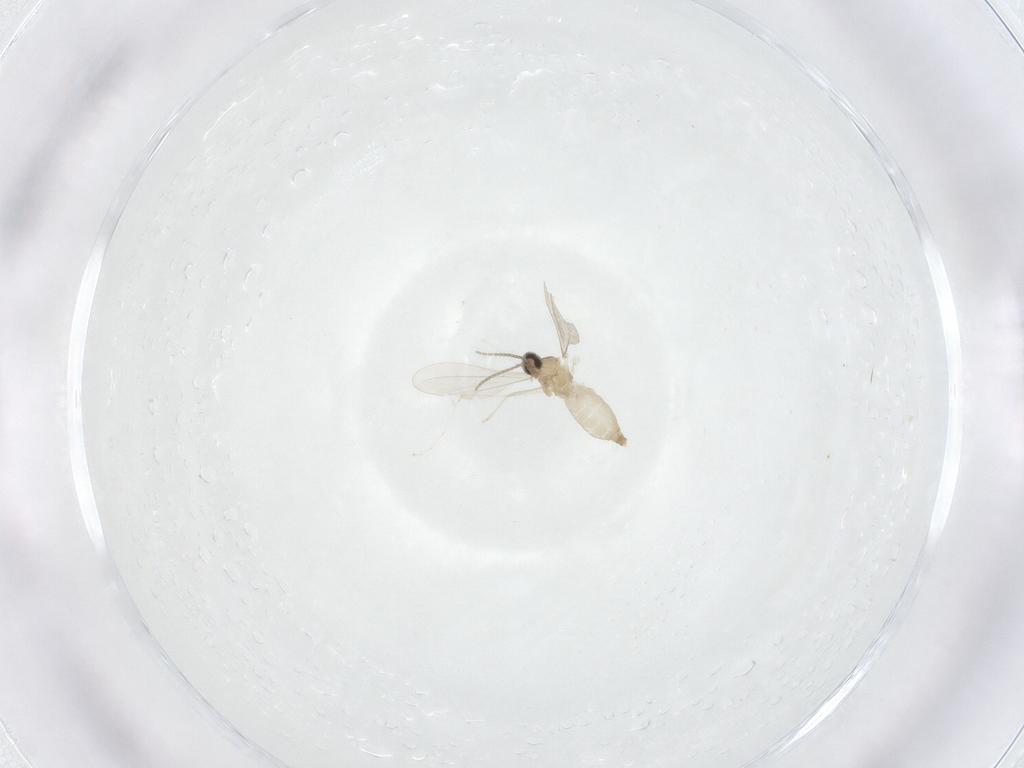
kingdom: Animalia
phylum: Arthropoda
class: Insecta
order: Diptera
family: Cecidomyiidae
